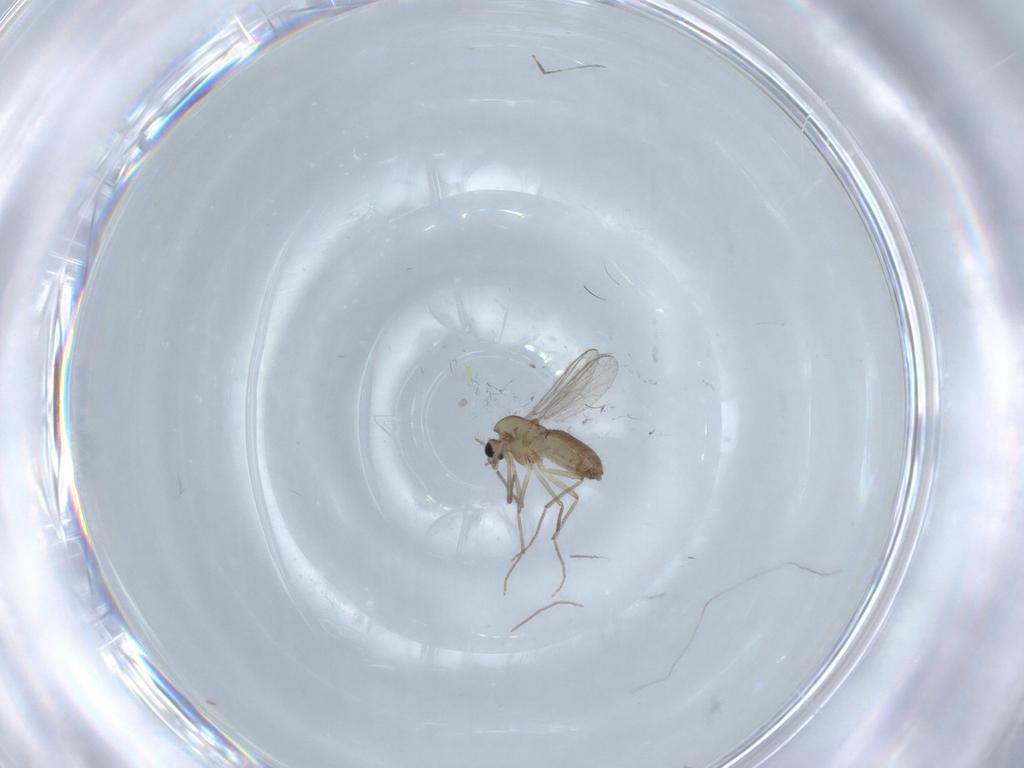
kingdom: Animalia
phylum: Arthropoda
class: Insecta
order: Diptera
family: Chironomidae
